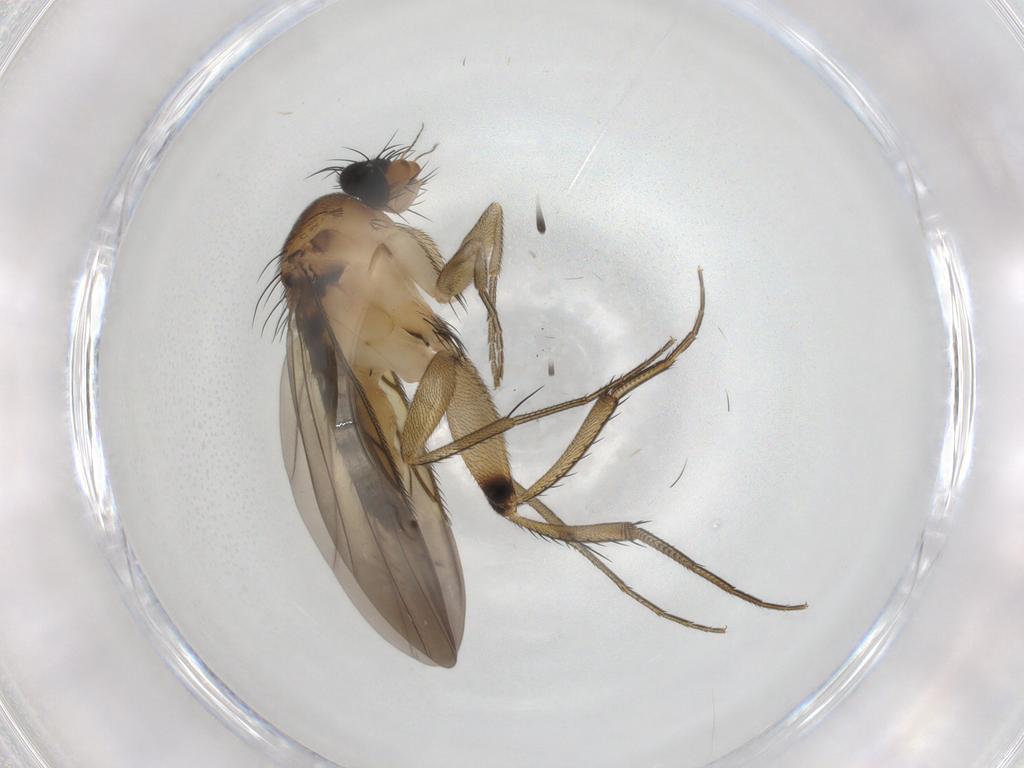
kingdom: Animalia
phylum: Arthropoda
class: Insecta
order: Diptera
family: Phoridae
